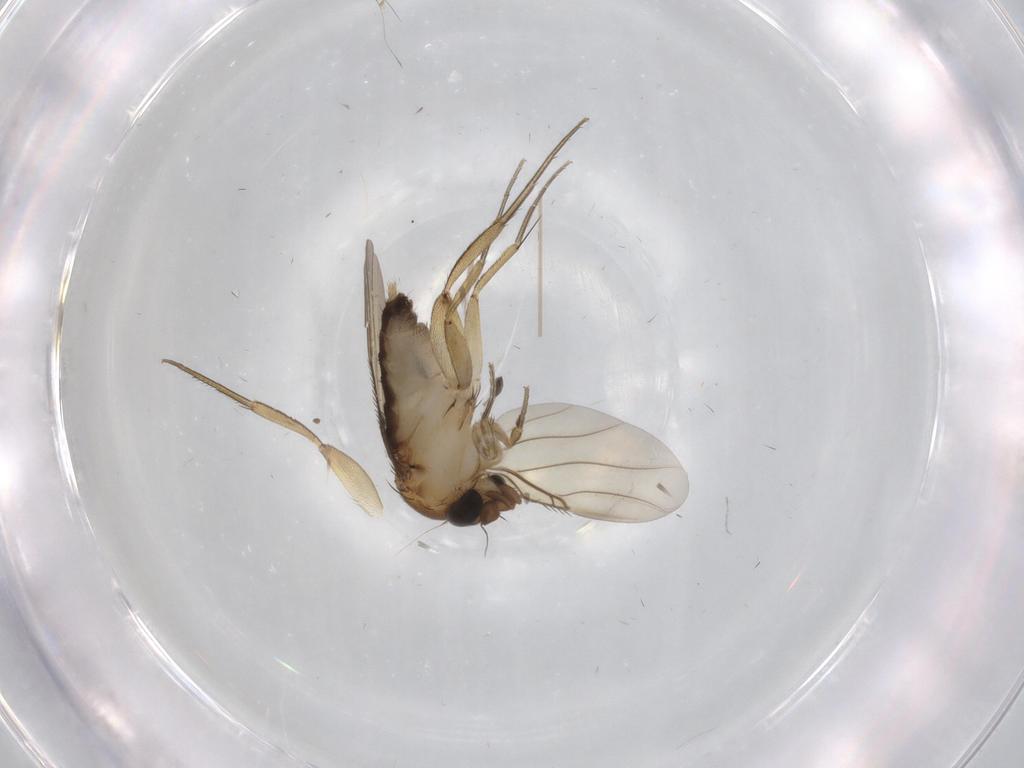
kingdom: Animalia
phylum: Arthropoda
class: Insecta
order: Diptera
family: Phoridae
